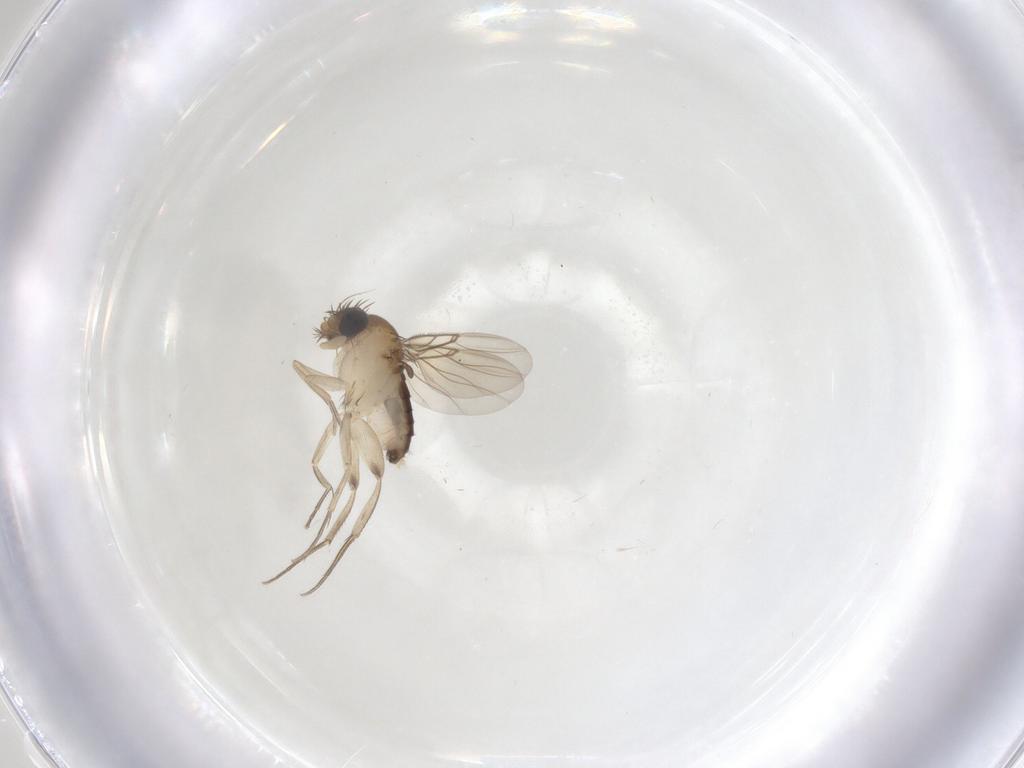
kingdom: Animalia
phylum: Arthropoda
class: Insecta
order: Diptera
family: Phoridae
